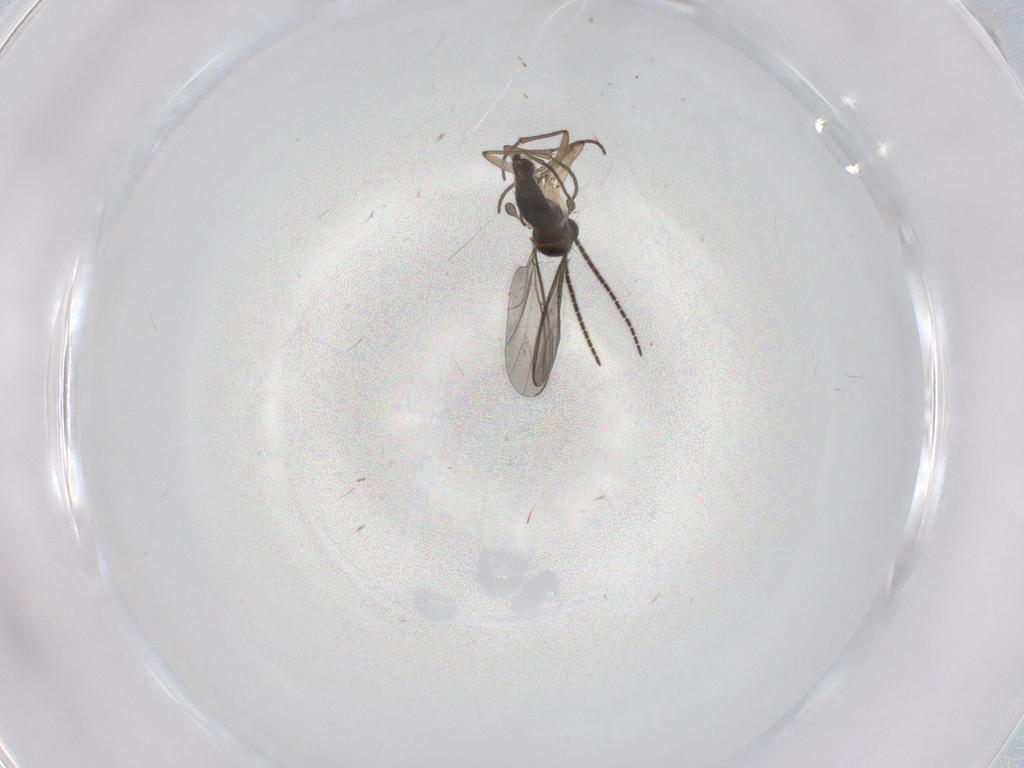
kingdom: Animalia
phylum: Arthropoda
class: Insecta
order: Diptera
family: Cecidomyiidae
